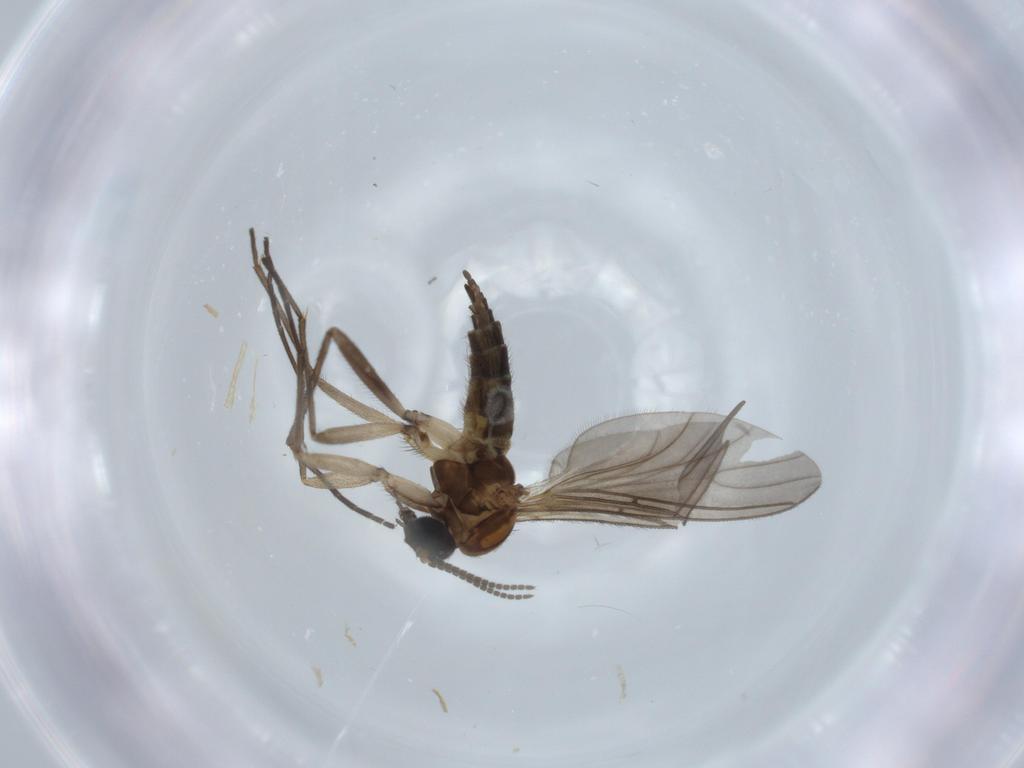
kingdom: Animalia
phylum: Arthropoda
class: Insecta
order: Diptera
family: Sciaridae
